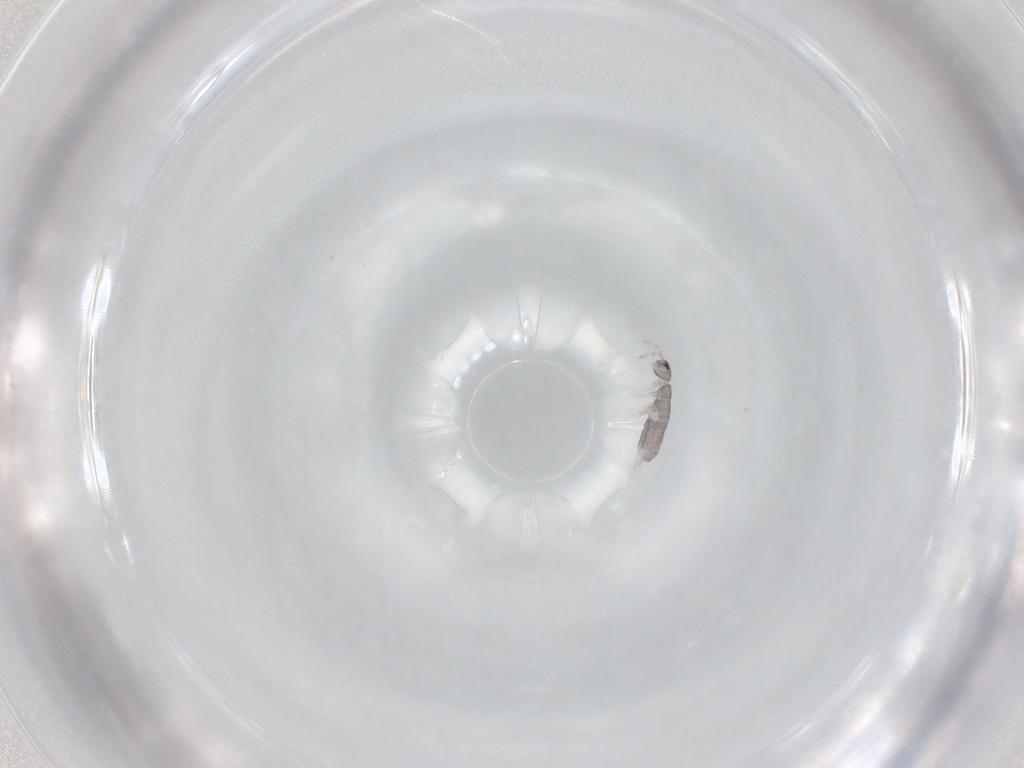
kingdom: Animalia
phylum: Arthropoda
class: Collembola
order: Entomobryomorpha
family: Isotomidae
